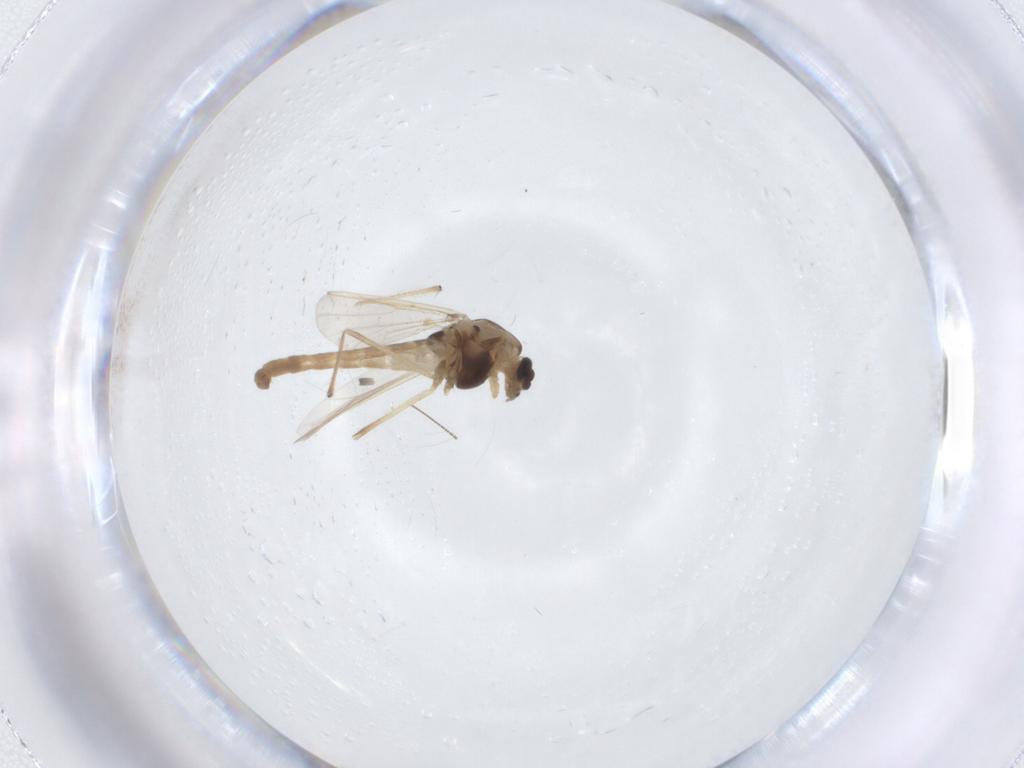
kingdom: Animalia
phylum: Arthropoda
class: Insecta
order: Diptera
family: Chironomidae
